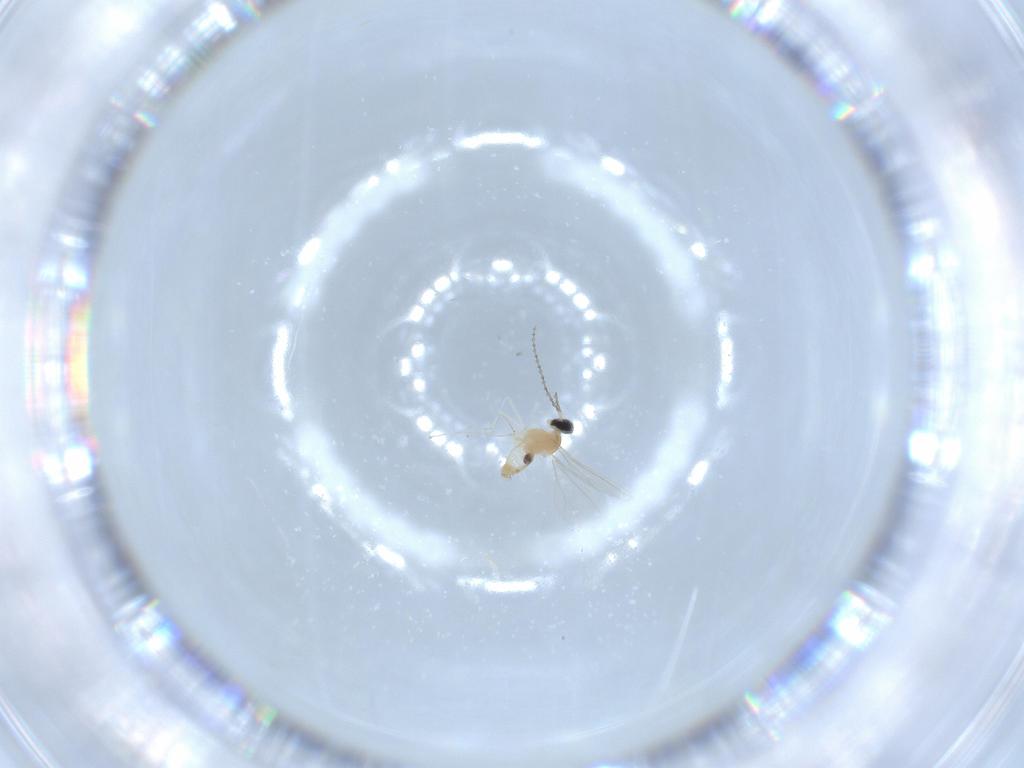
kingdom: Animalia
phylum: Arthropoda
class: Insecta
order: Diptera
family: Cecidomyiidae
